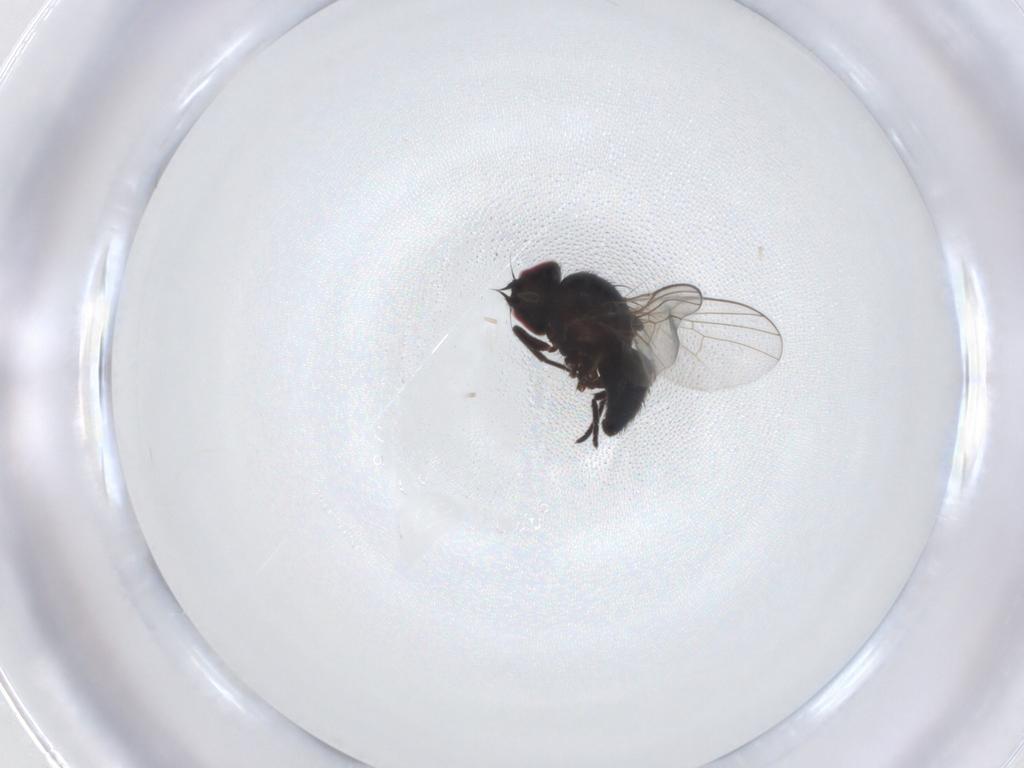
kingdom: Animalia
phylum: Arthropoda
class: Insecta
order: Diptera
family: Agromyzidae
